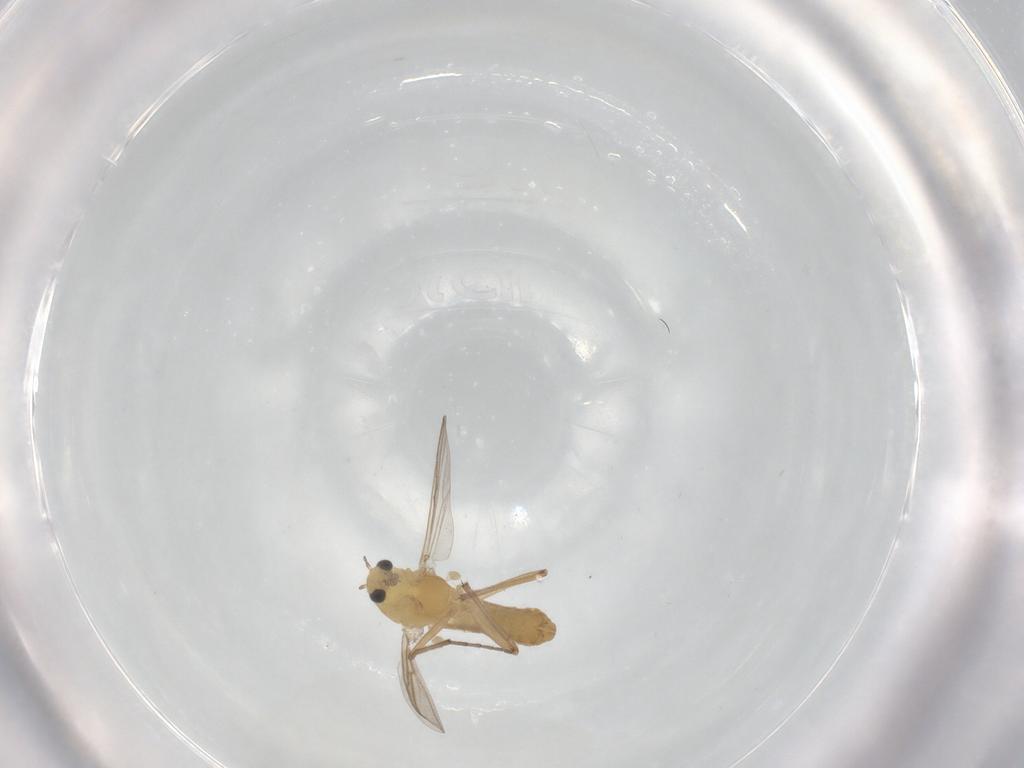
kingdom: Animalia
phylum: Arthropoda
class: Insecta
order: Diptera
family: Chironomidae
